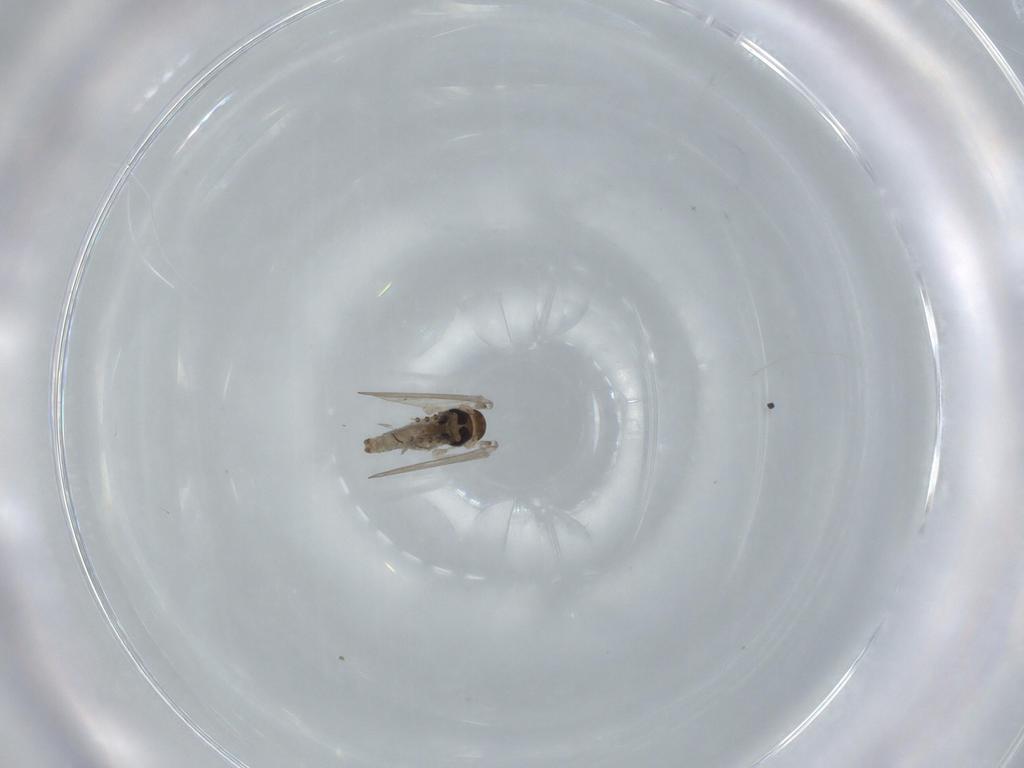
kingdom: Animalia
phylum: Arthropoda
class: Insecta
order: Diptera
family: Psychodidae
